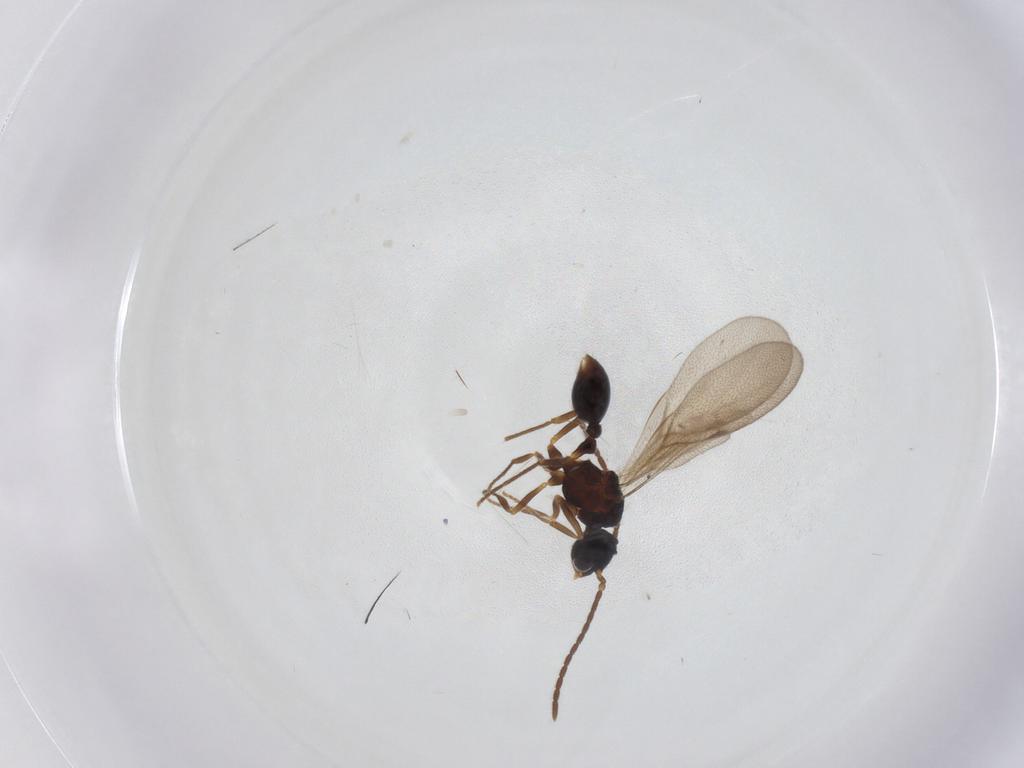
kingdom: Animalia
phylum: Arthropoda
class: Insecta
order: Hymenoptera
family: Formicidae
